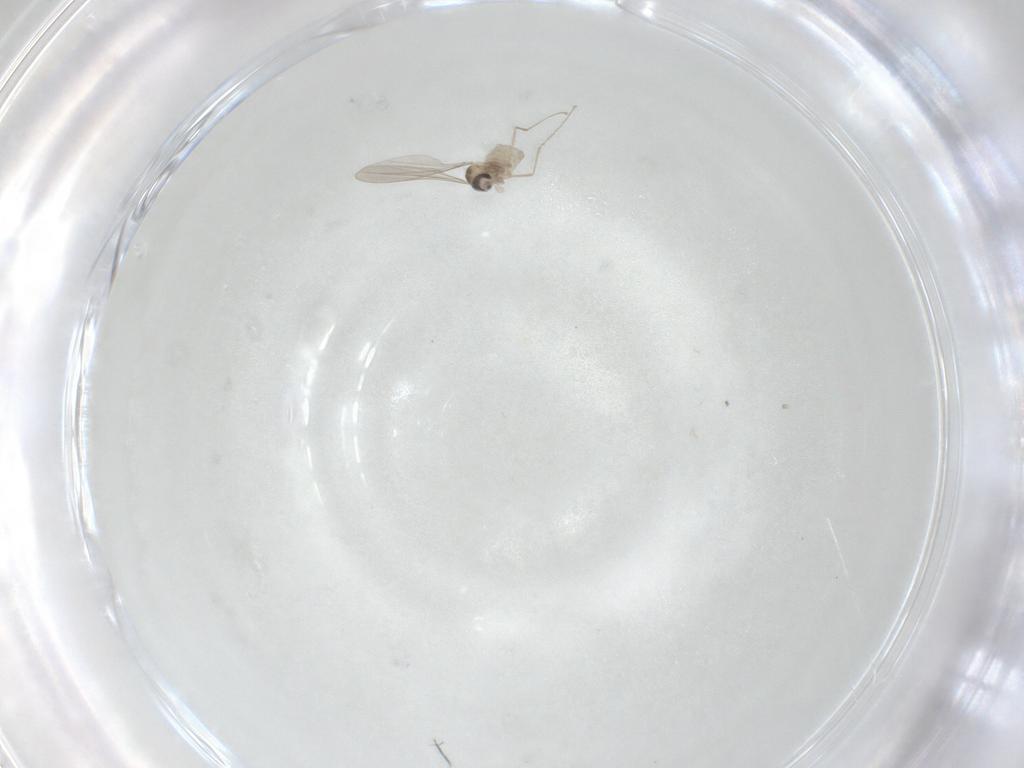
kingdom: Animalia
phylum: Arthropoda
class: Insecta
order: Diptera
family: Cecidomyiidae
